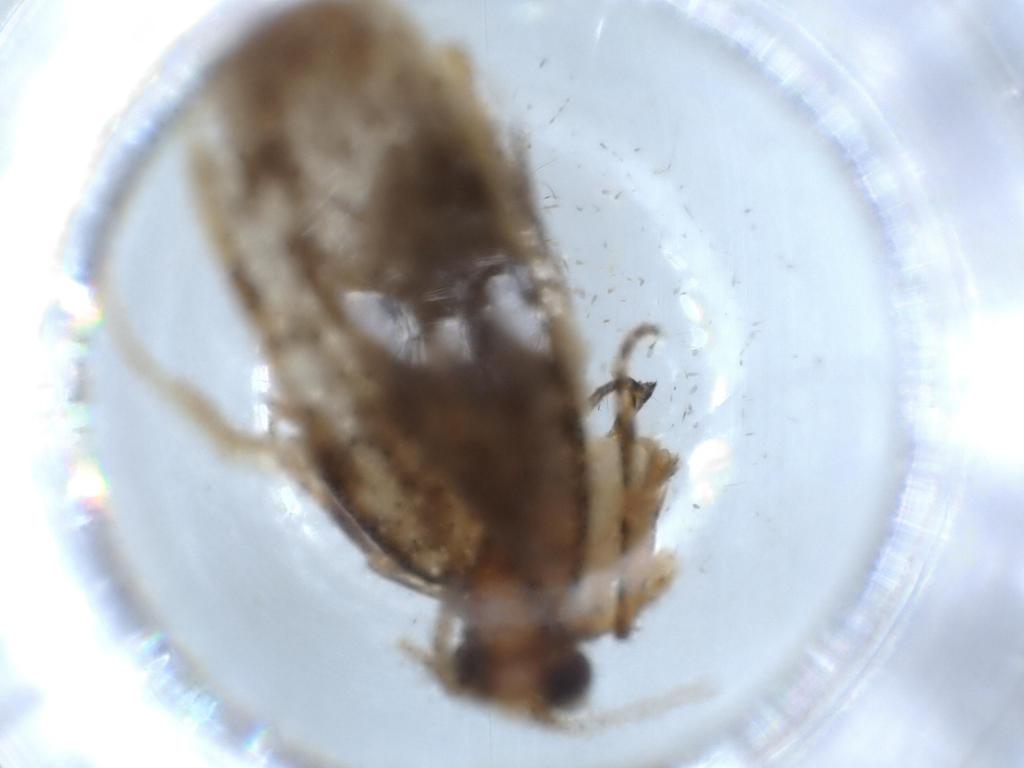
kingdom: Animalia
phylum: Arthropoda
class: Insecta
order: Lepidoptera
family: Tineidae
